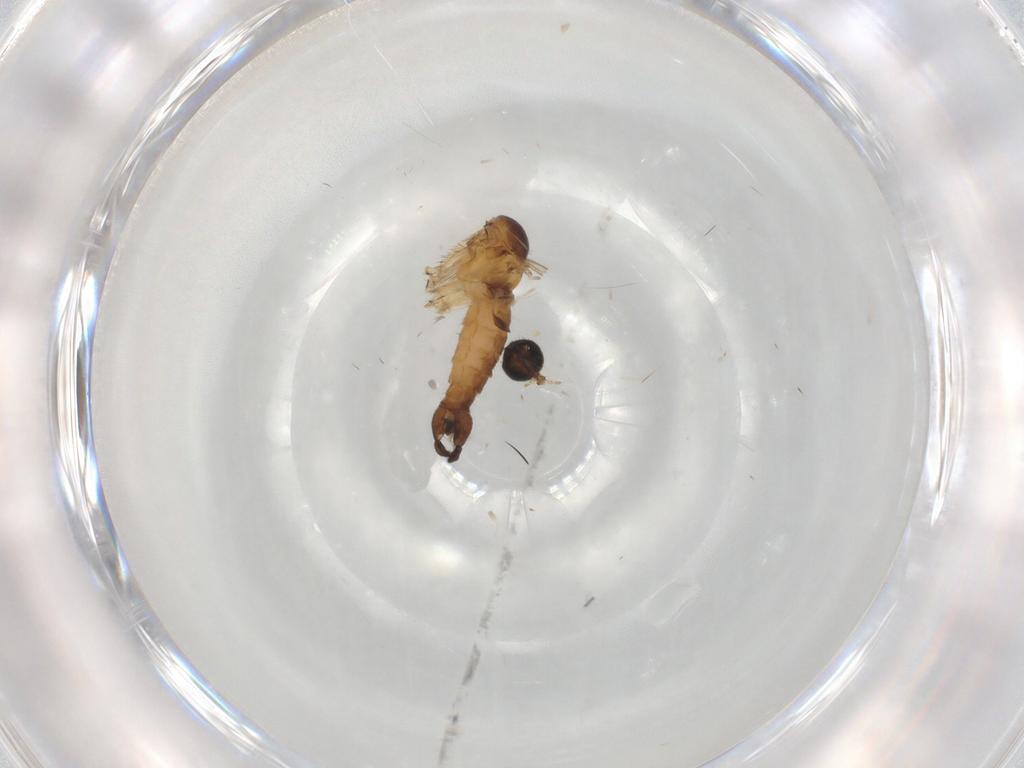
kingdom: Animalia
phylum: Arthropoda
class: Insecta
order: Diptera
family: Sciaridae
